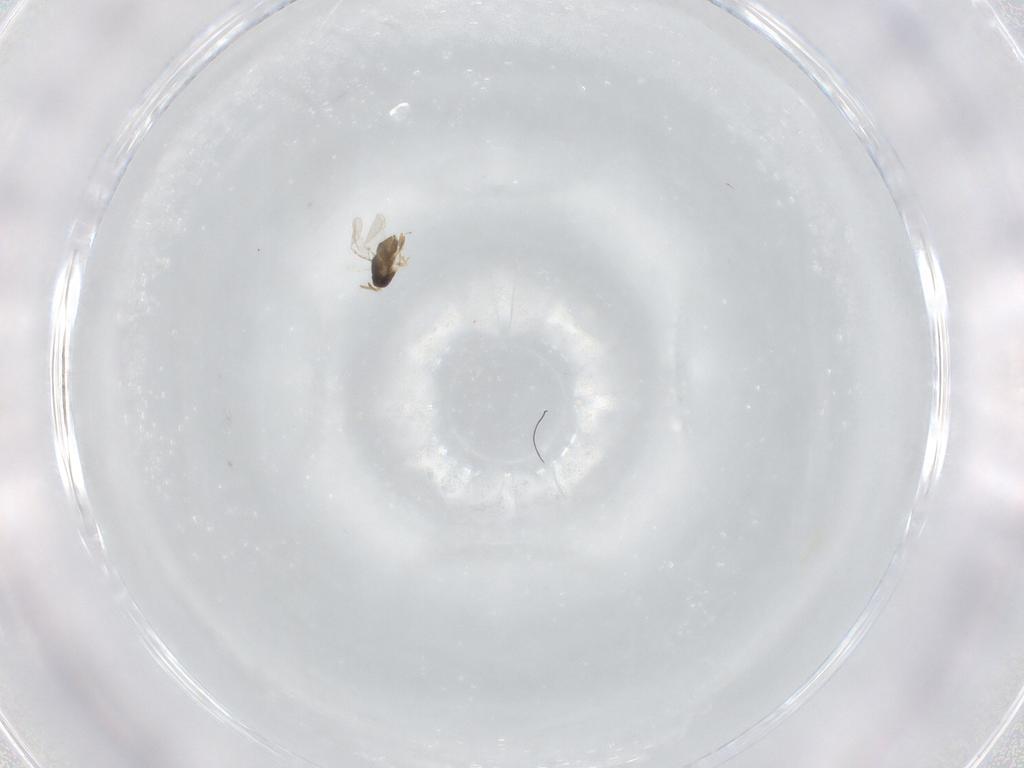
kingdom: Animalia
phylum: Arthropoda
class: Insecta
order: Hymenoptera
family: Encyrtidae
